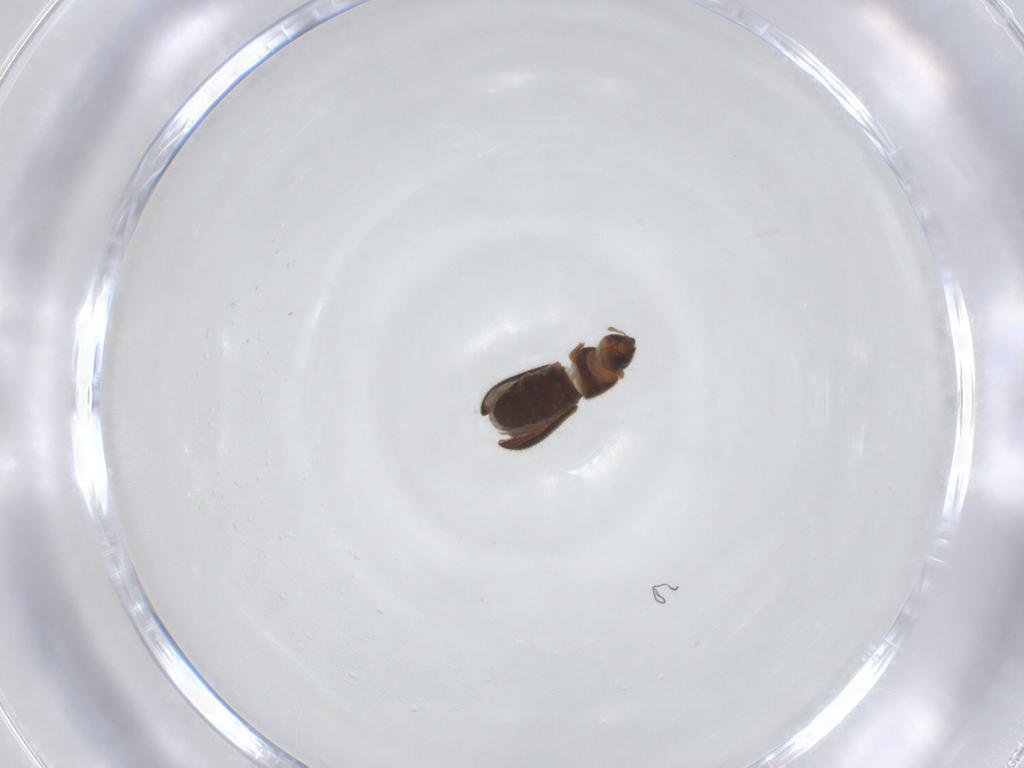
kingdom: Animalia
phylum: Arthropoda
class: Insecta
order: Coleoptera
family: Curculionidae
